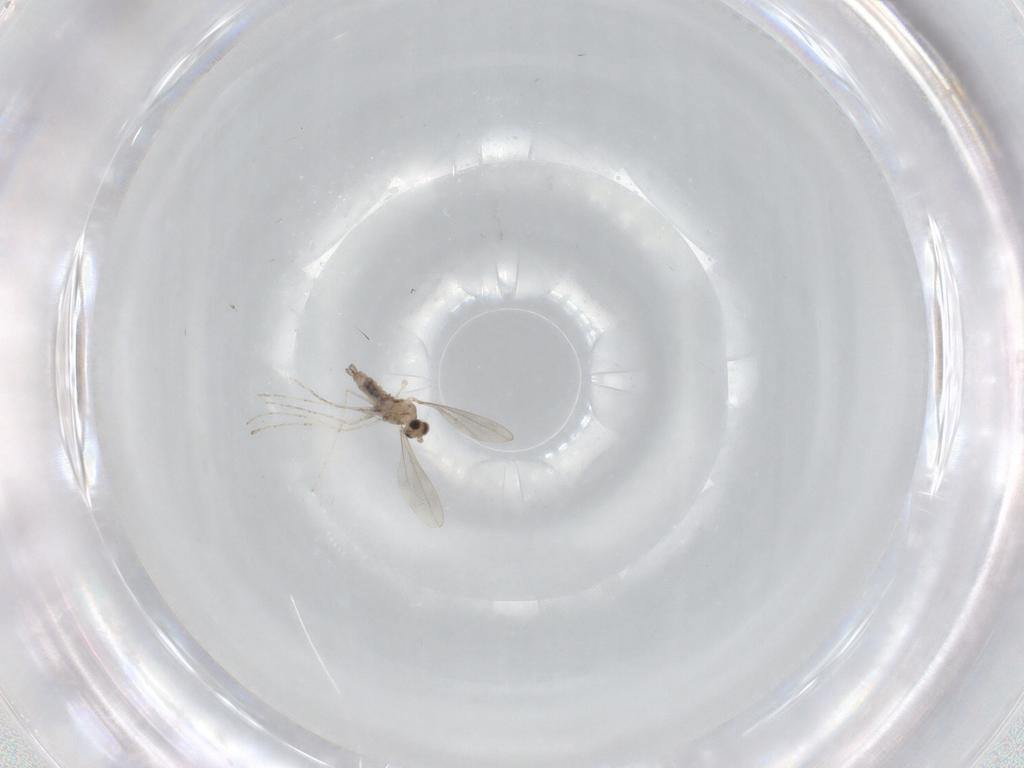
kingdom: Animalia
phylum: Arthropoda
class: Insecta
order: Diptera
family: Cecidomyiidae
